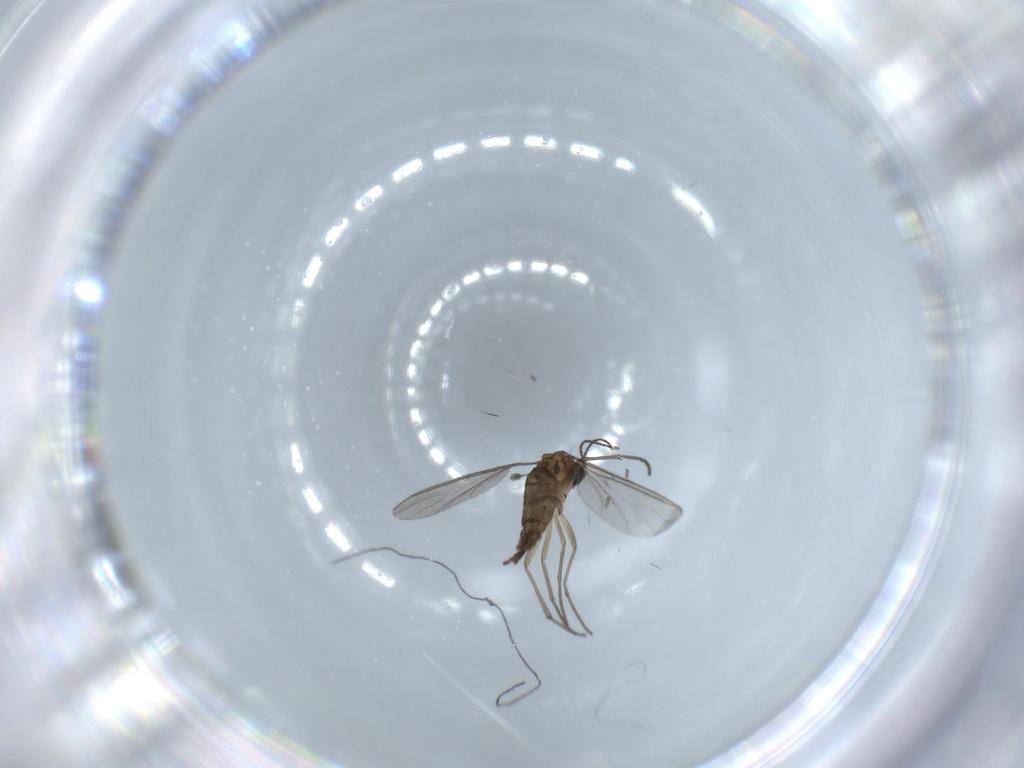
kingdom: Animalia
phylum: Arthropoda
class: Insecta
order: Diptera
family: Sciaridae
